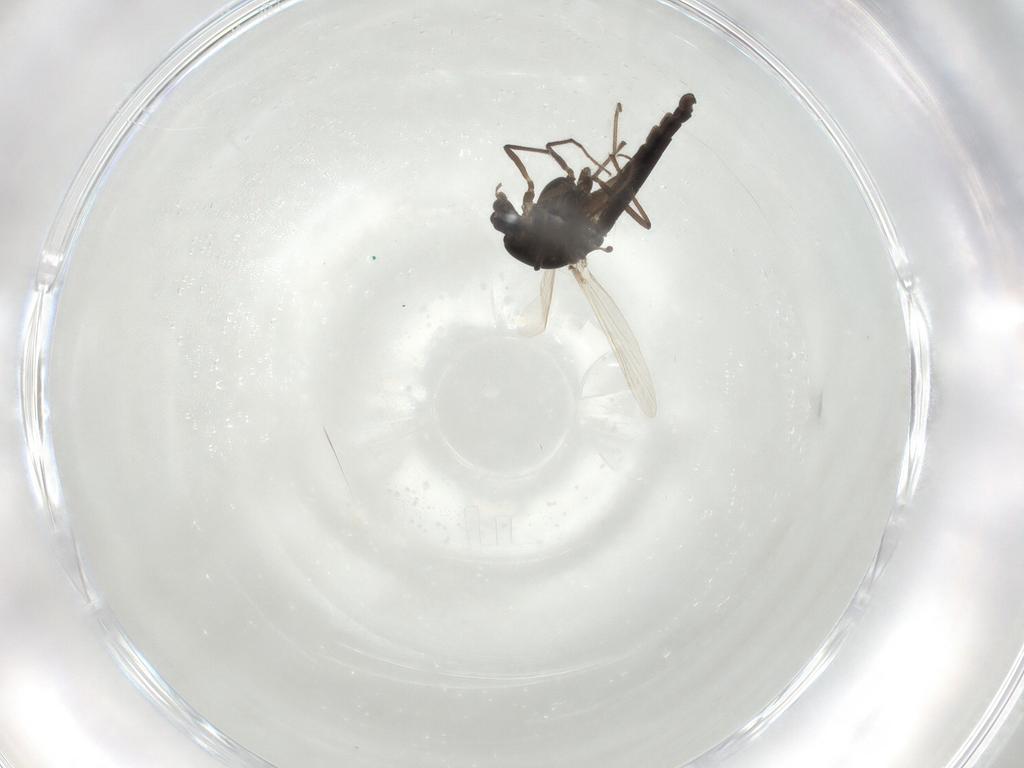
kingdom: Animalia
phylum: Arthropoda
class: Insecta
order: Diptera
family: Chironomidae
